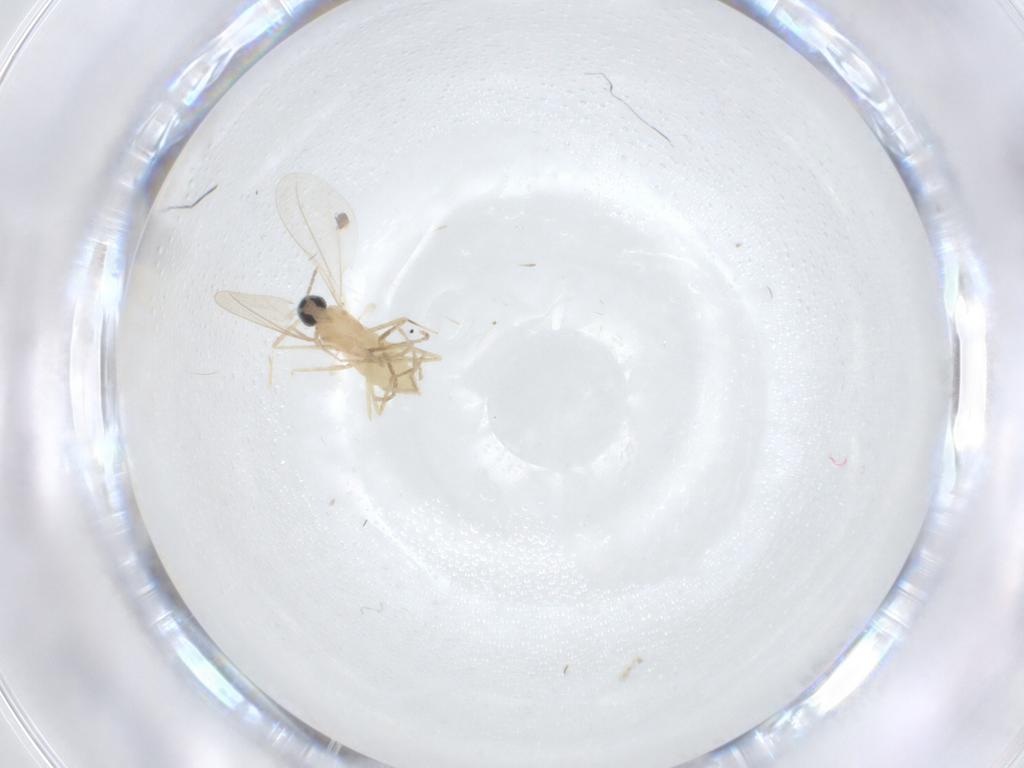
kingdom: Animalia
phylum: Arthropoda
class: Insecta
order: Diptera
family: Cecidomyiidae
